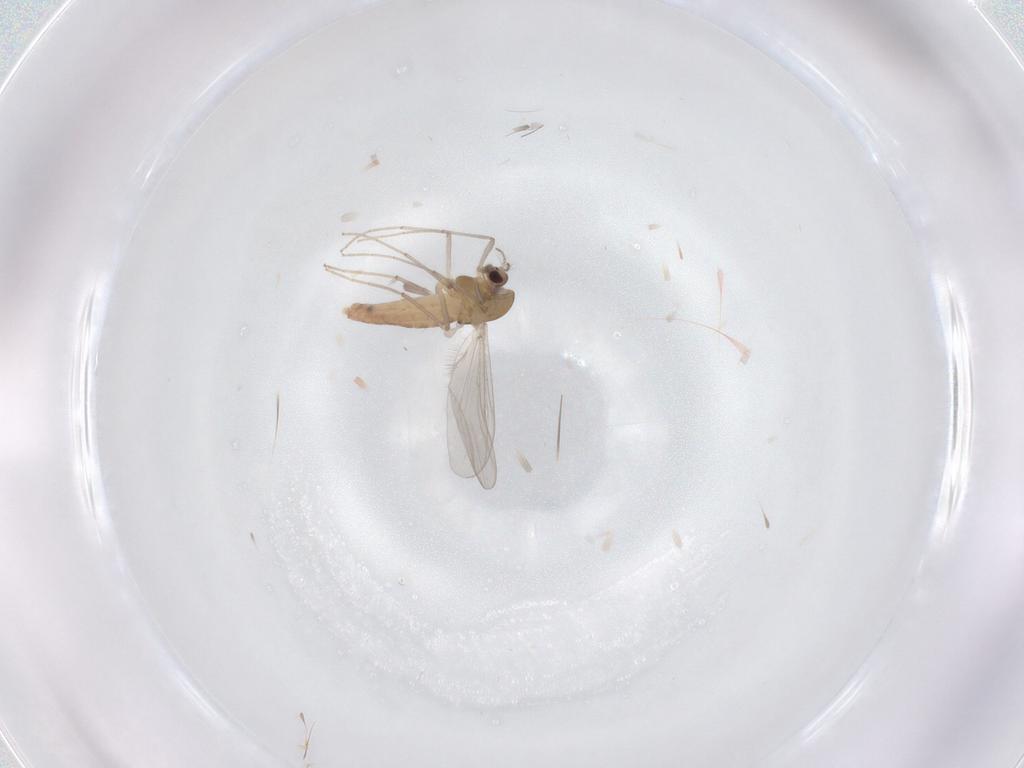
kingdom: Animalia
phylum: Arthropoda
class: Insecta
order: Diptera
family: Chironomidae
